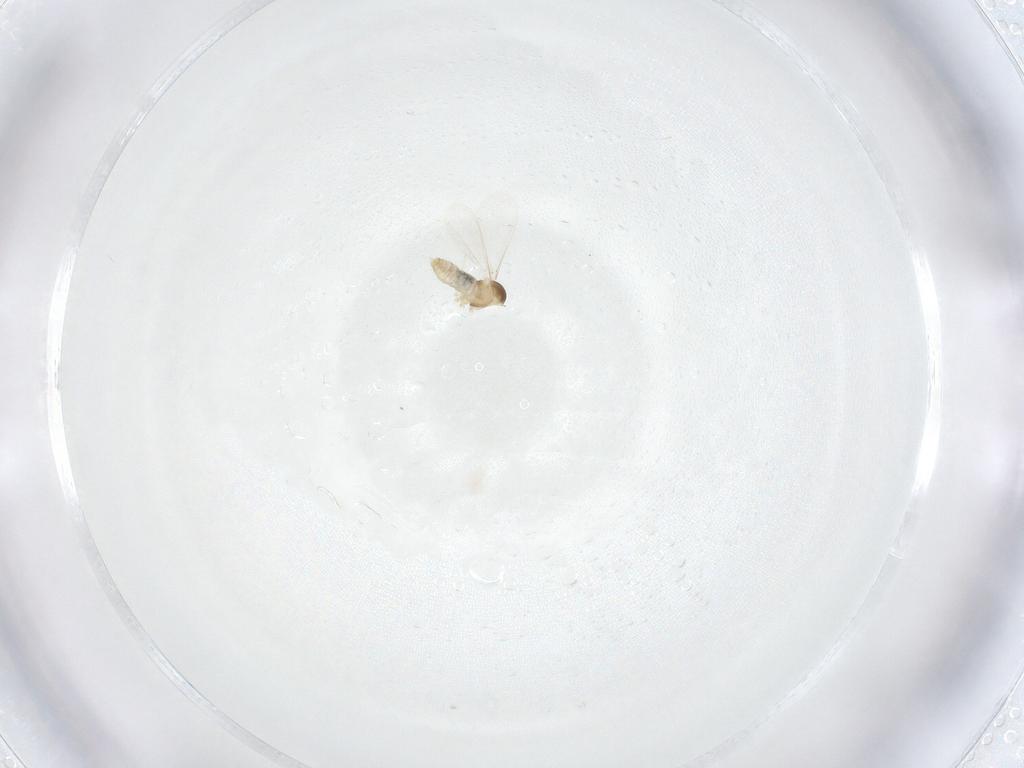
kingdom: Animalia
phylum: Arthropoda
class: Insecta
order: Diptera
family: Cecidomyiidae
